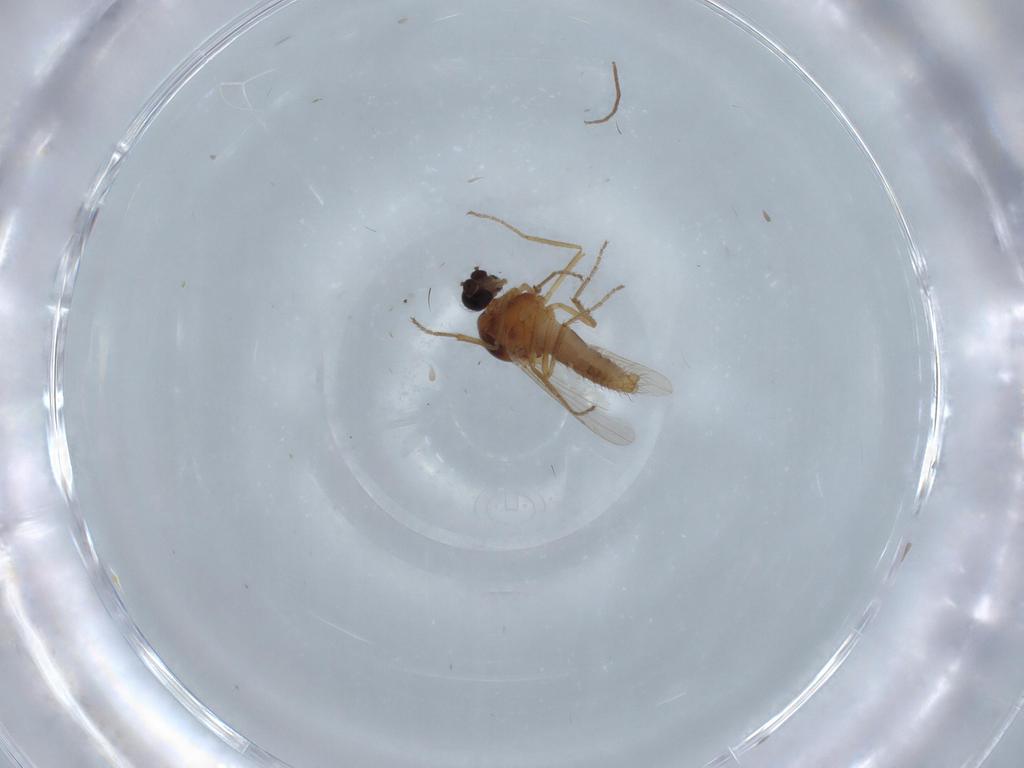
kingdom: Animalia
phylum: Arthropoda
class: Insecta
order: Diptera
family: Ceratopogonidae
